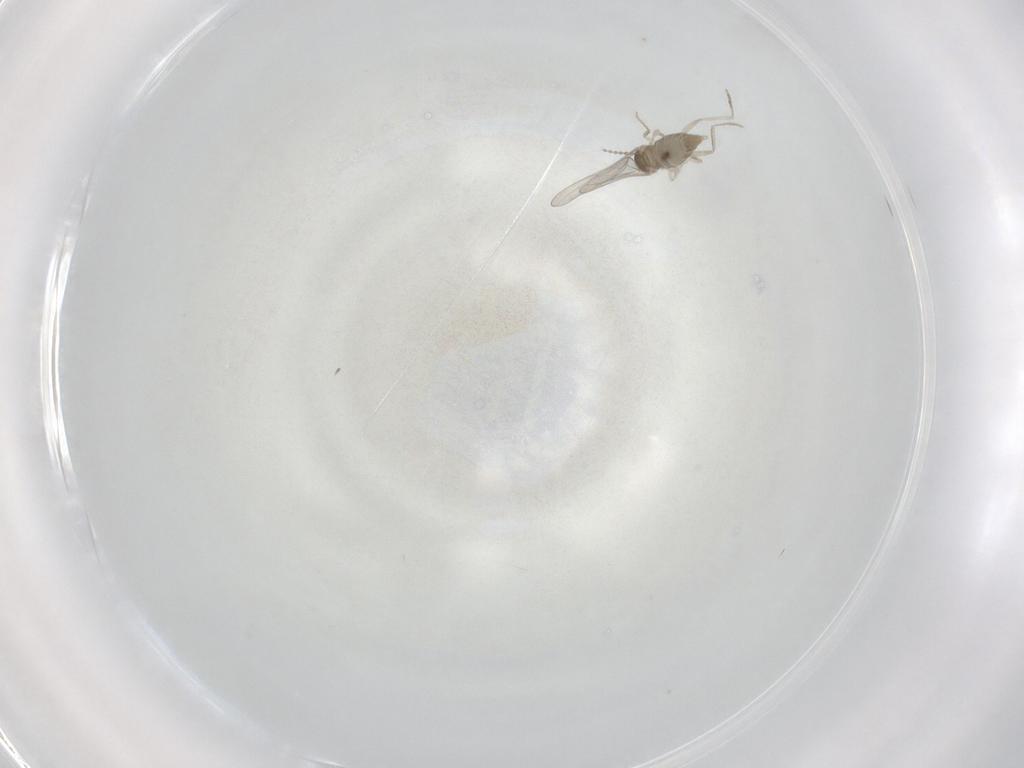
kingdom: Animalia
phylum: Arthropoda
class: Insecta
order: Diptera
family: Cecidomyiidae
